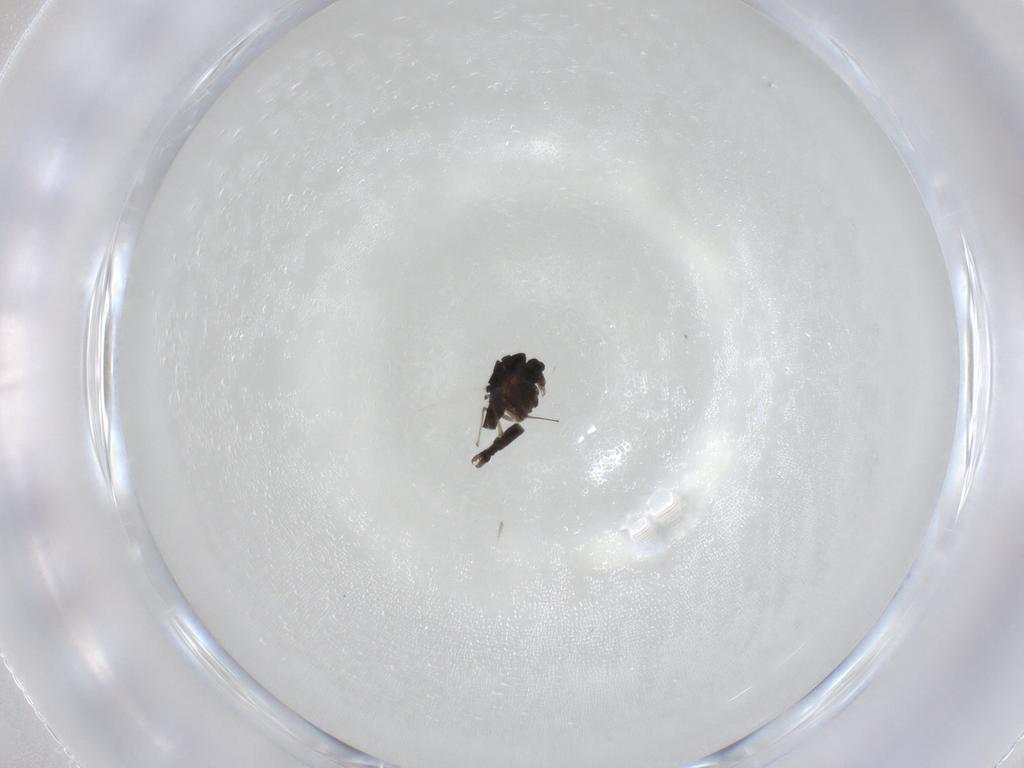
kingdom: Animalia
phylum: Arthropoda
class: Insecta
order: Diptera
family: Chironomidae
